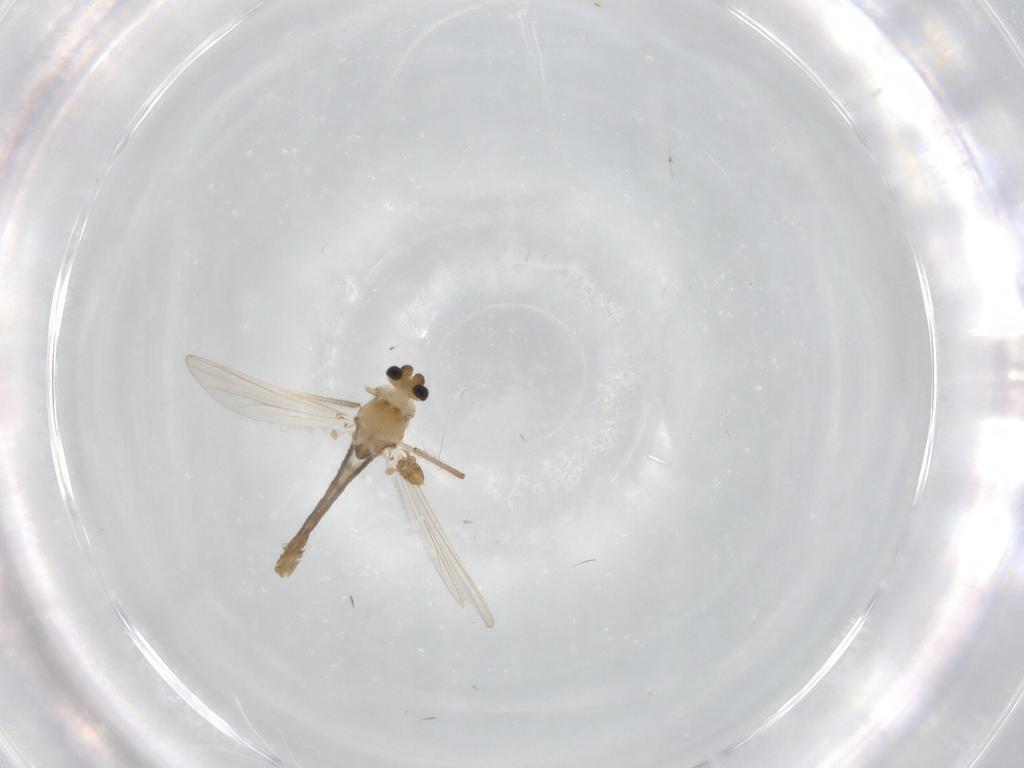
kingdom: Animalia
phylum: Arthropoda
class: Insecta
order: Diptera
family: Chironomidae
